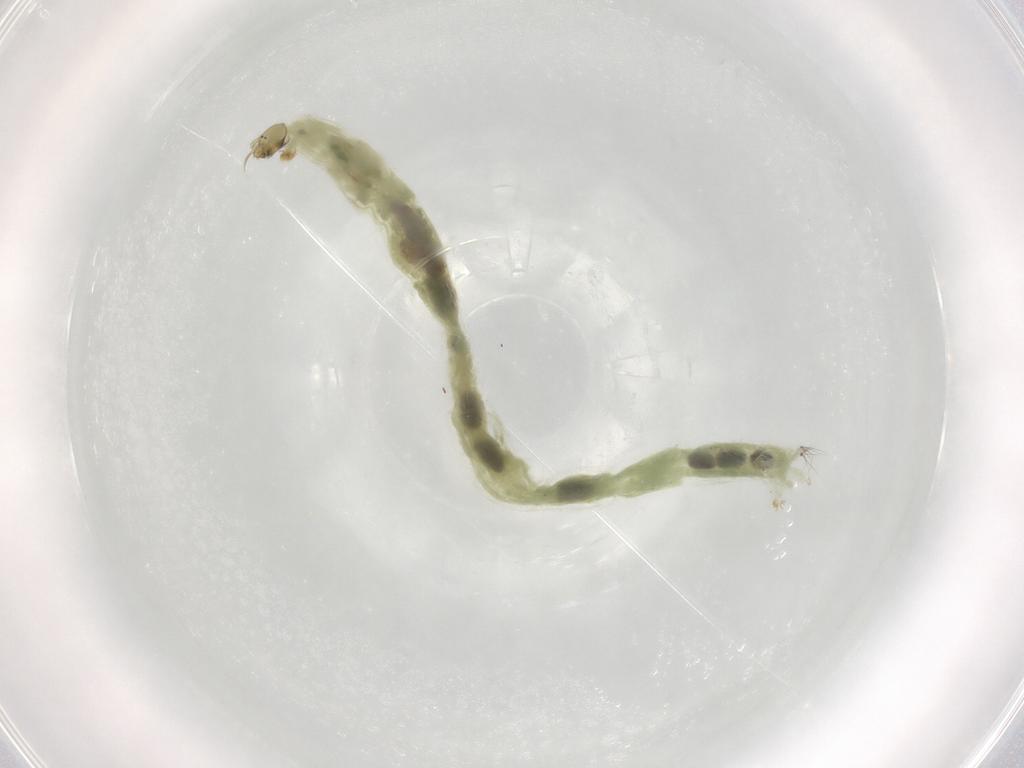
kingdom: Animalia
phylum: Arthropoda
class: Insecta
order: Diptera
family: Chironomidae
